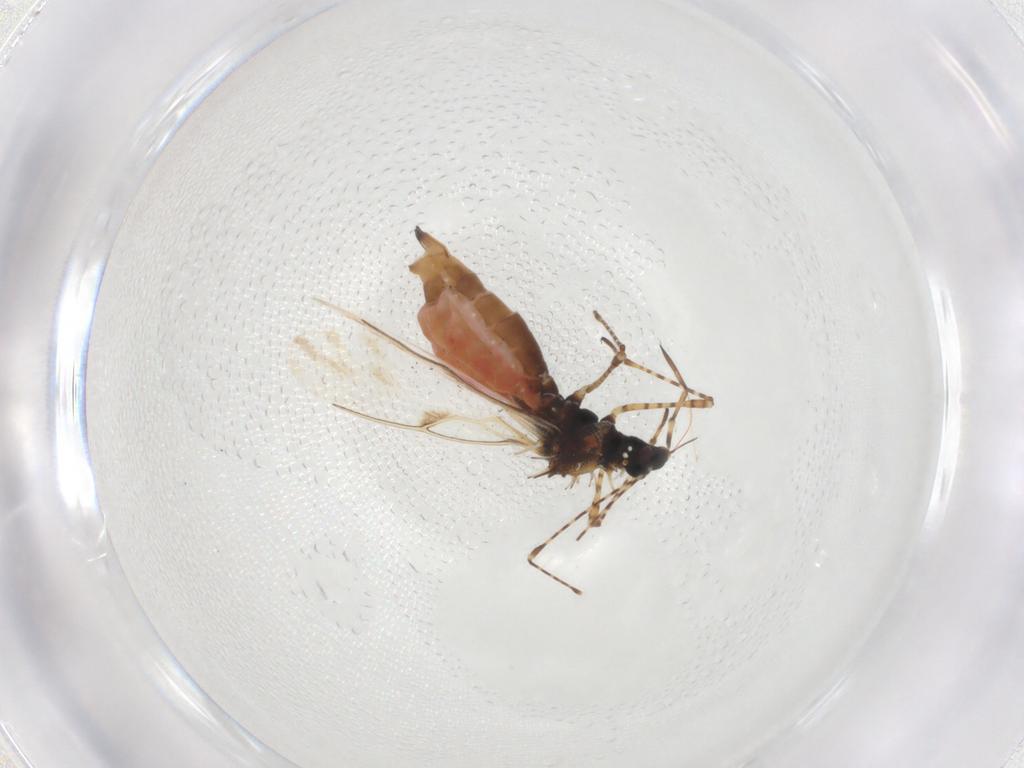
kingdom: Animalia
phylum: Arthropoda
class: Insecta
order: Hemiptera
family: Berytidae
